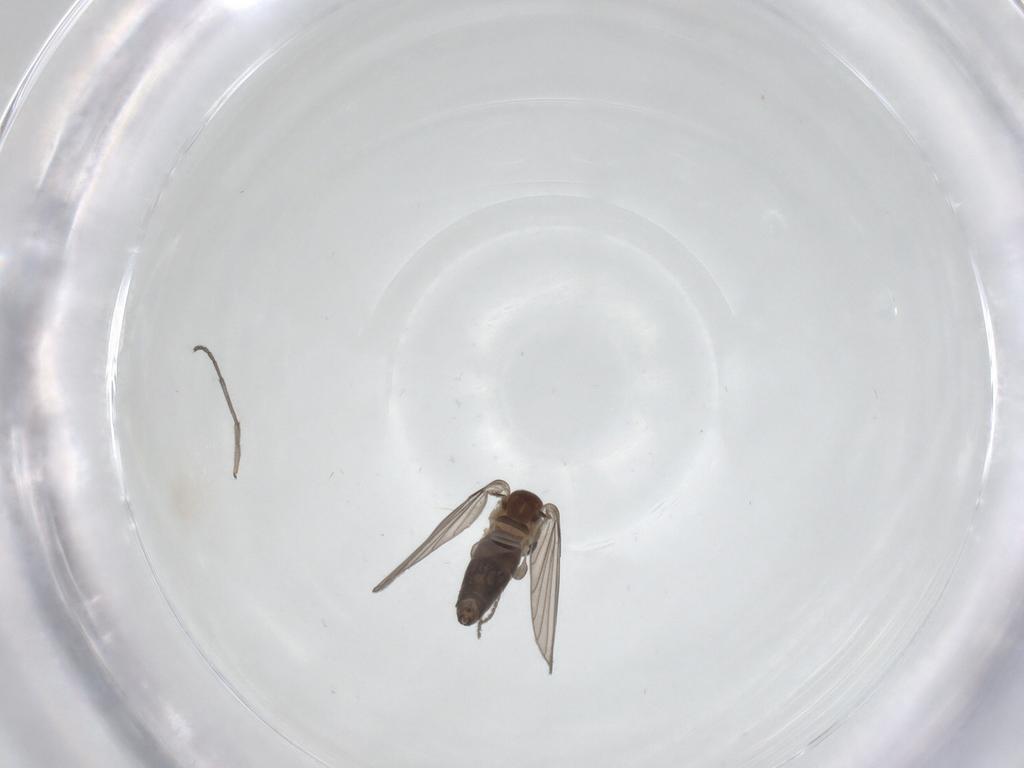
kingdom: Animalia
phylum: Arthropoda
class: Insecta
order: Diptera
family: Sciaridae
